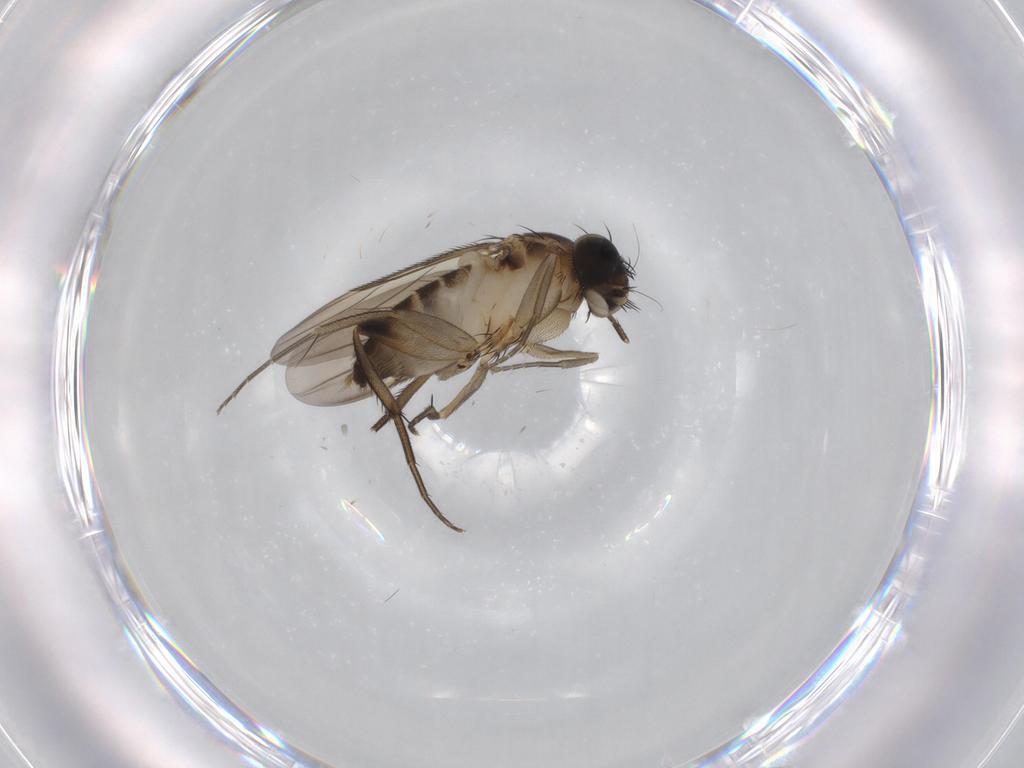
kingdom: Animalia
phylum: Arthropoda
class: Insecta
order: Diptera
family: Phoridae
